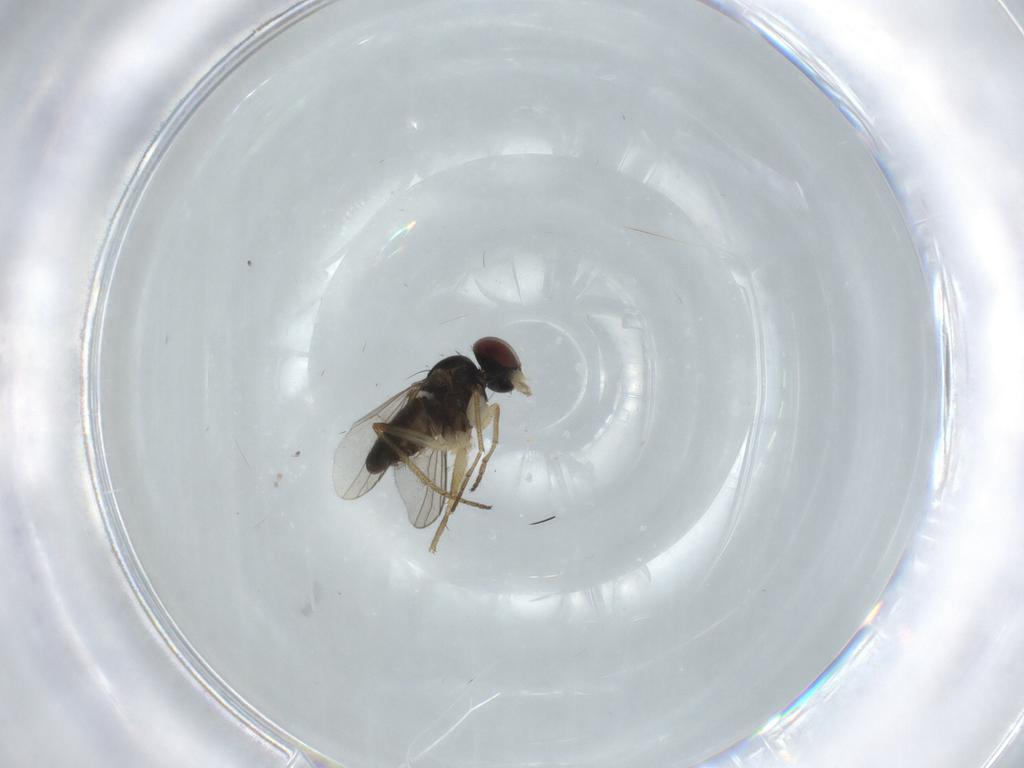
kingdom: Animalia
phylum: Arthropoda
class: Insecta
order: Diptera
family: Dolichopodidae
